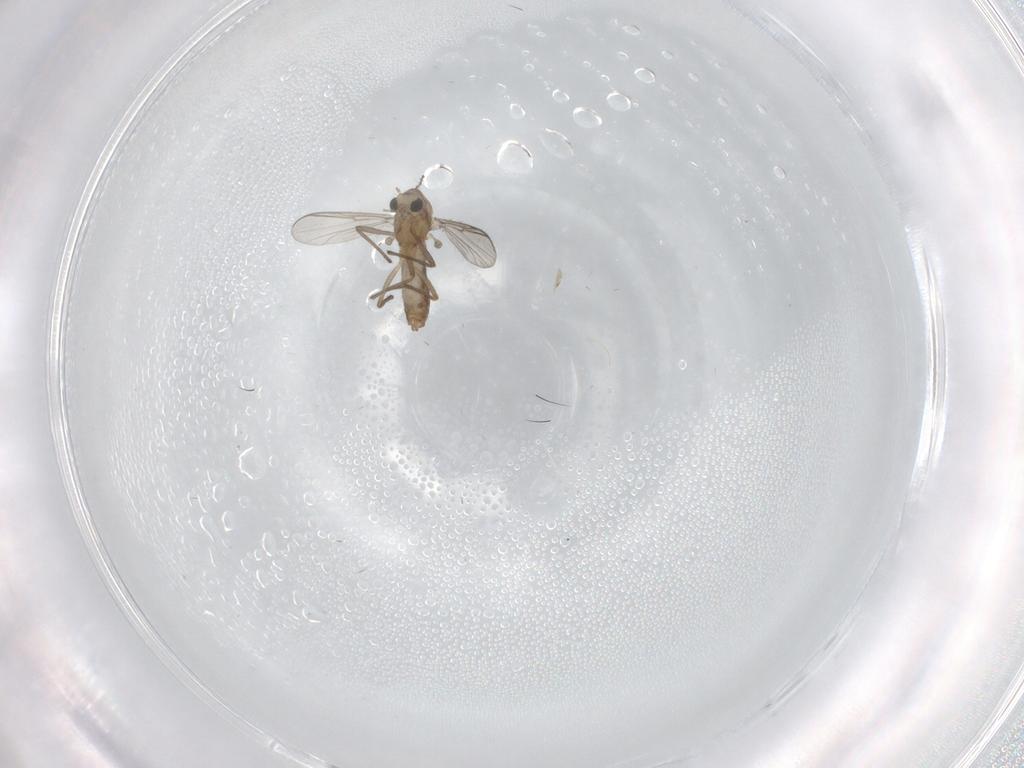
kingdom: Animalia
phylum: Arthropoda
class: Insecta
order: Diptera
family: Chironomidae
